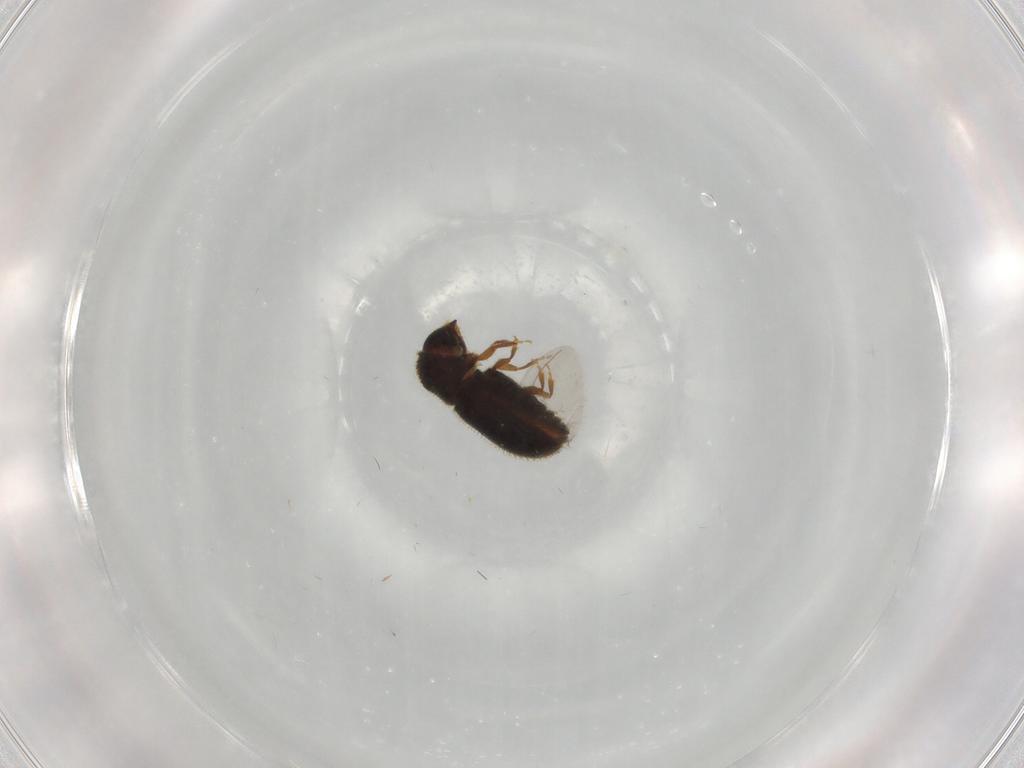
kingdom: Animalia
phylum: Arthropoda
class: Insecta
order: Coleoptera
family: Curculionidae
